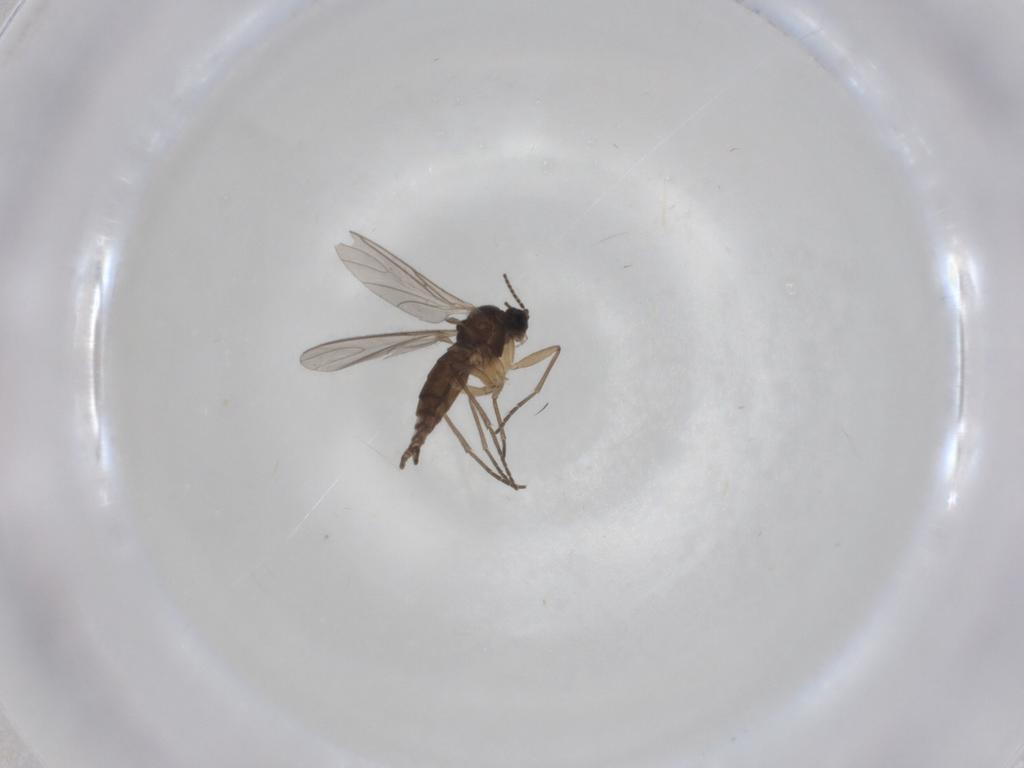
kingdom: Animalia
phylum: Arthropoda
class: Insecta
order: Diptera
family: Sciaridae
